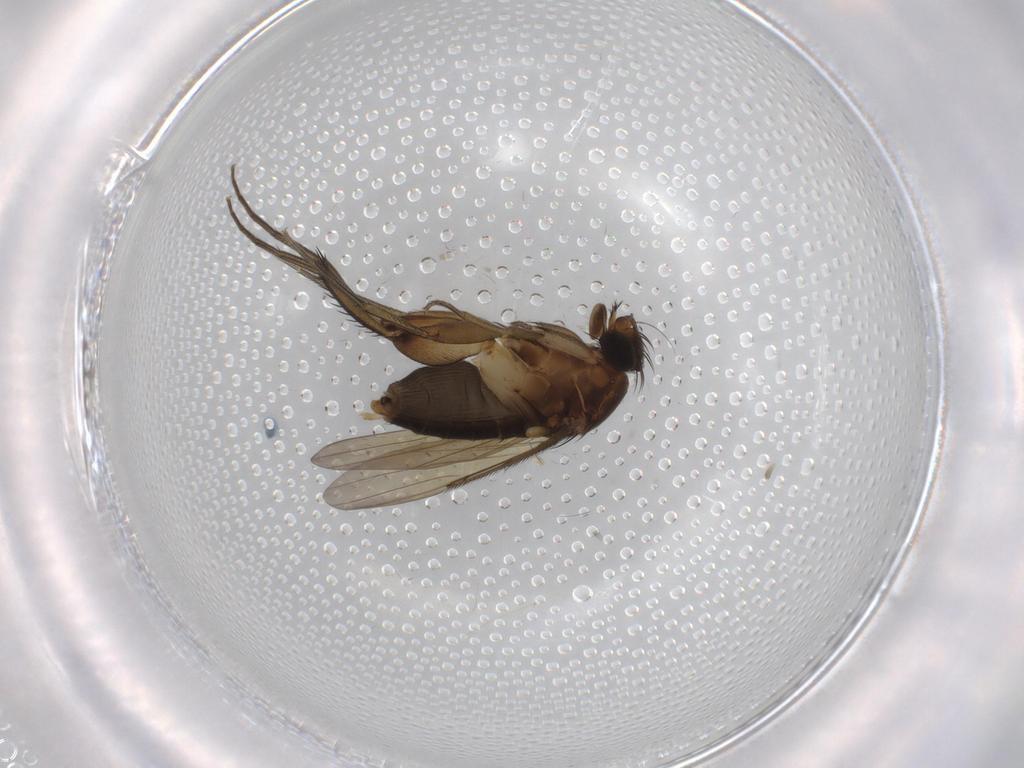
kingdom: Animalia
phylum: Arthropoda
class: Insecta
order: Diptera
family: Phoridae
